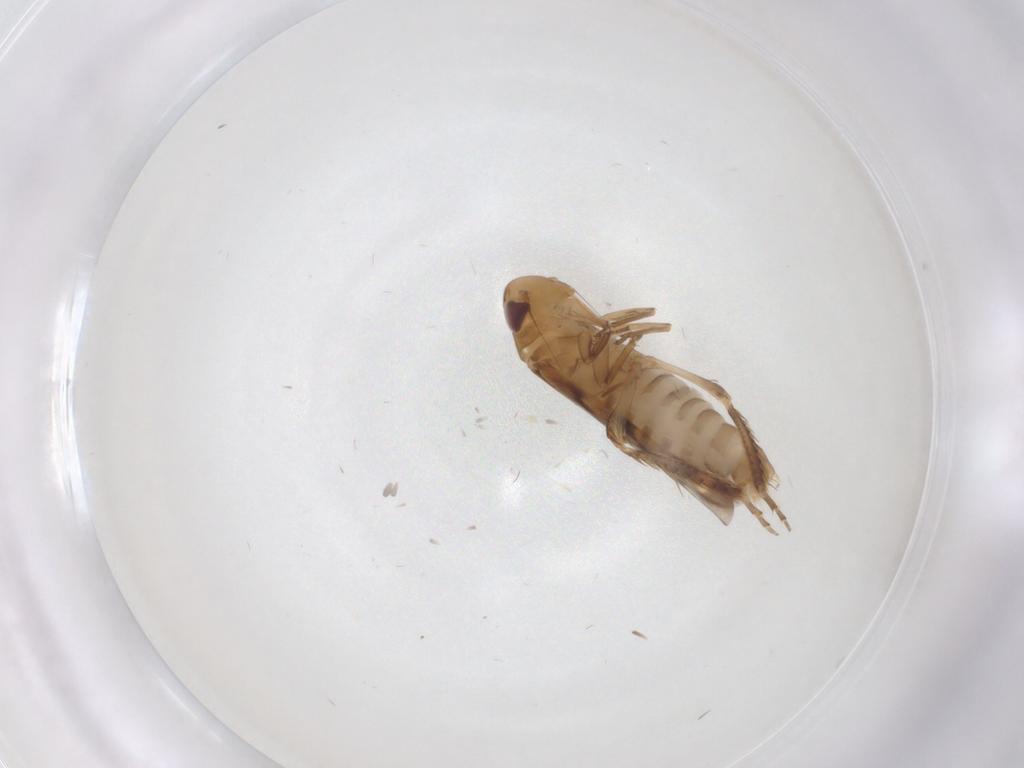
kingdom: Animalia
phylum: Arthropoda
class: Insecta
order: Hemiptera
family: Cicadellidae
